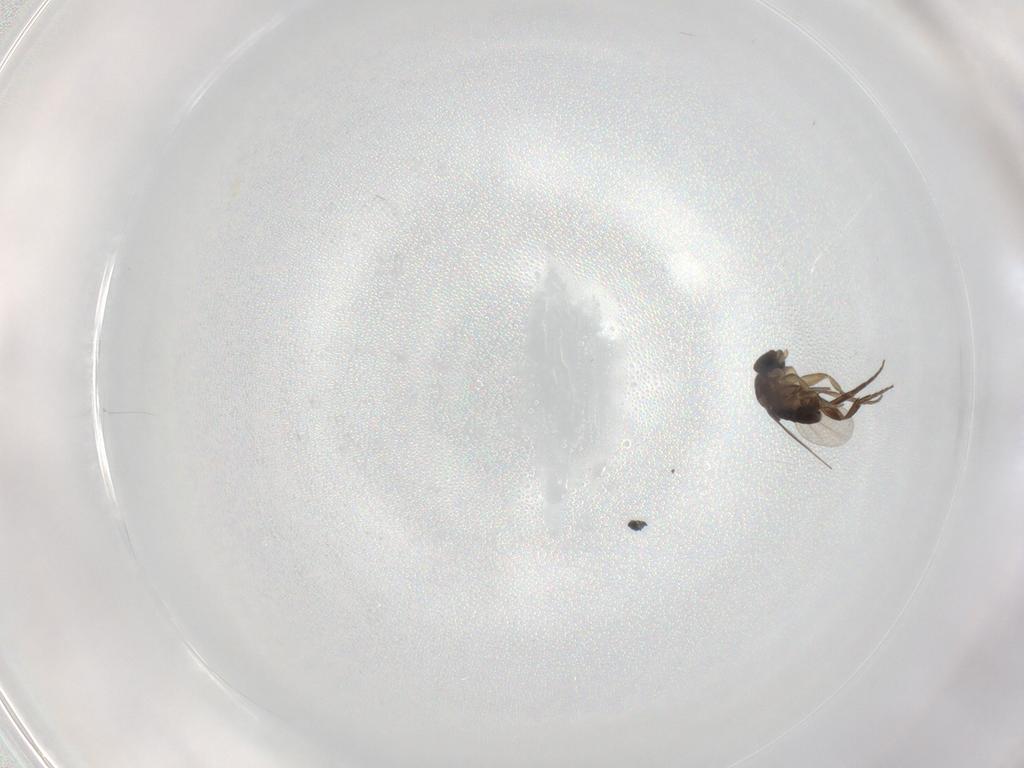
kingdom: Animalia
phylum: Arthropoda
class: Insecta
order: Diptera
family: Phoridae
